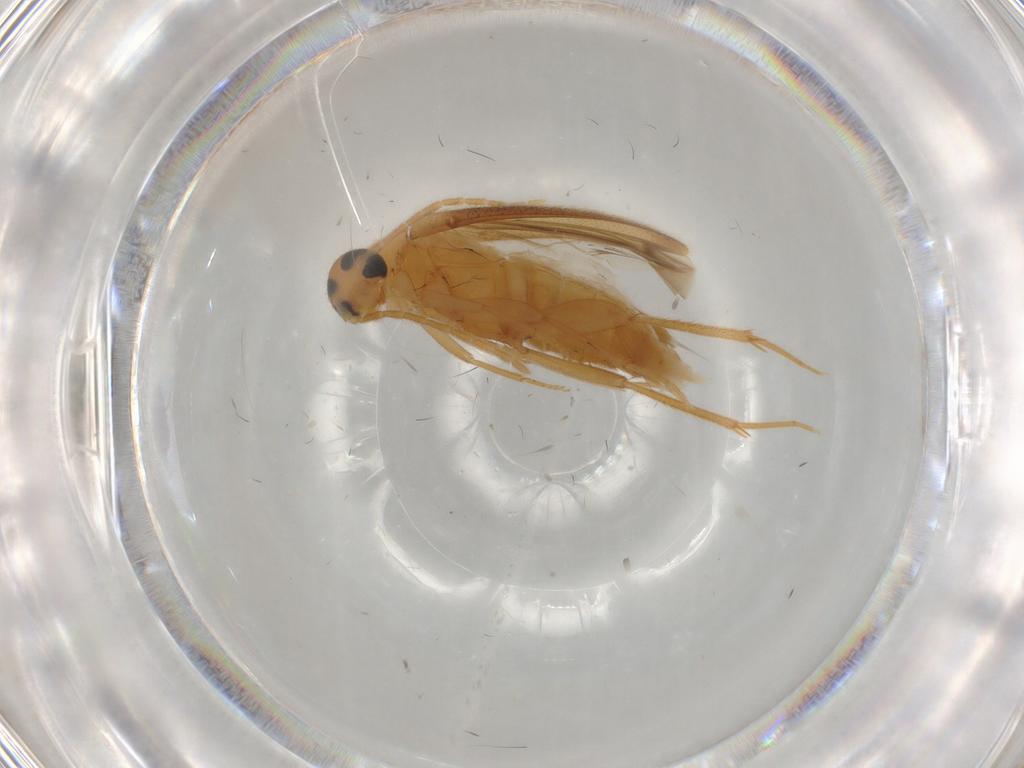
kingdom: Animalia
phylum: Arthropoda
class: Insecta
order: Coleoptera
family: Scraptiidae
